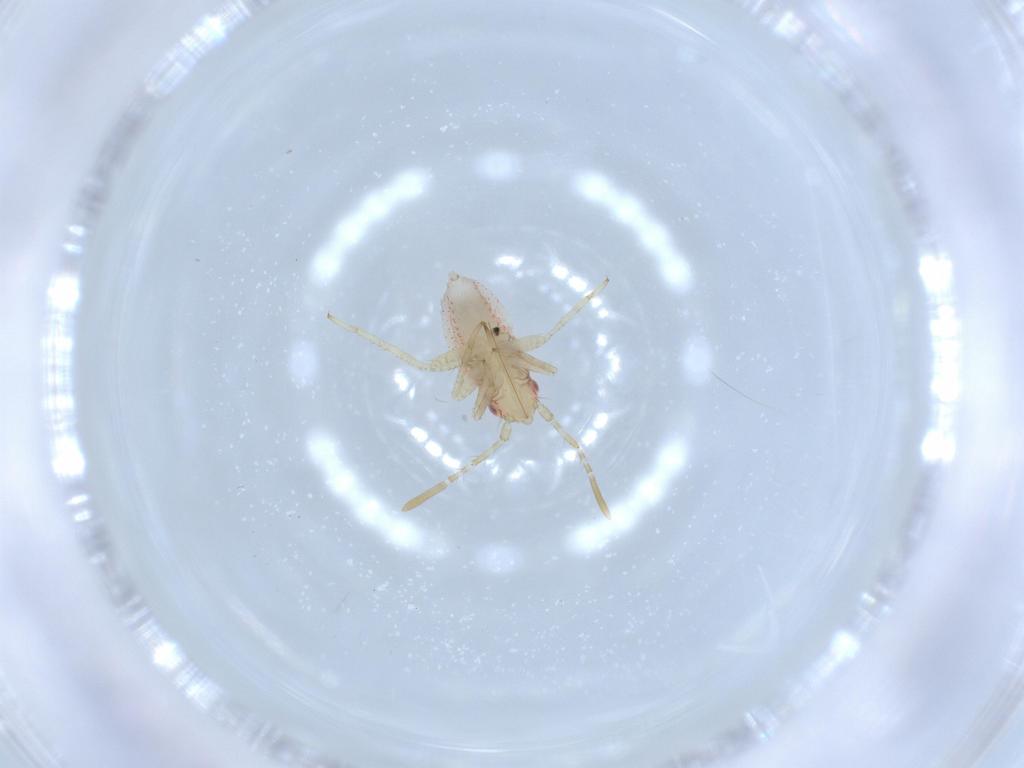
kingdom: Animalia
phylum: Arthropoda
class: Insecta
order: Hemiptera
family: Miridae
